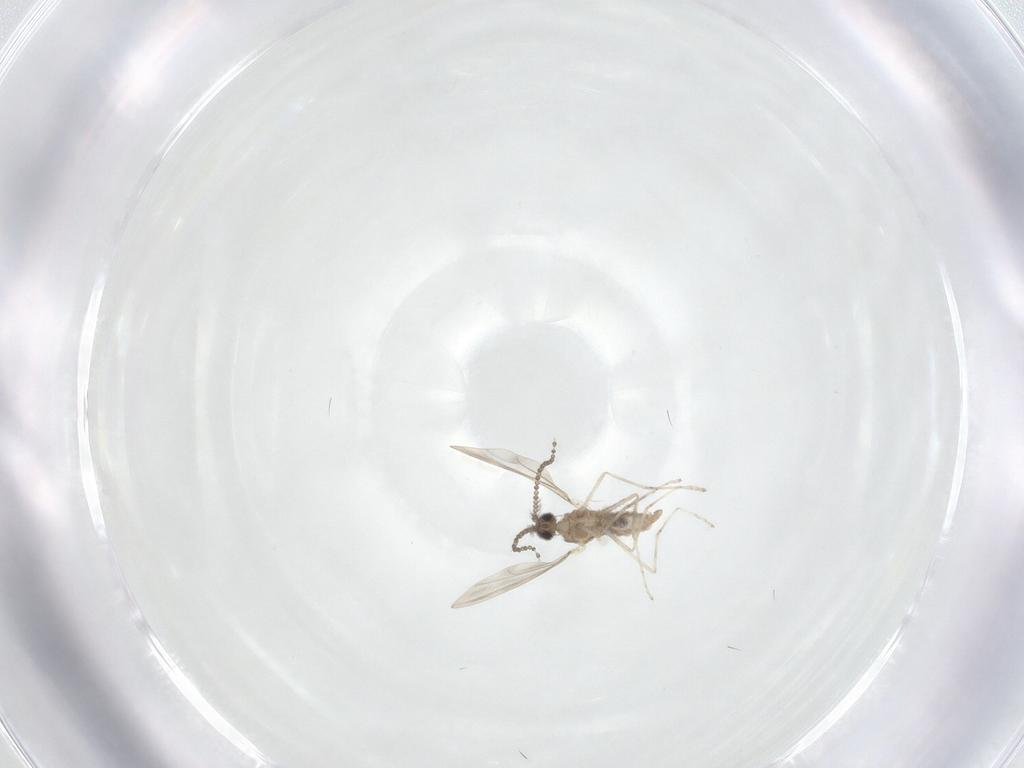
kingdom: Animalia
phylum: Arthropoda
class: Insecta
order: Diptera
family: Cecidomyiidae
